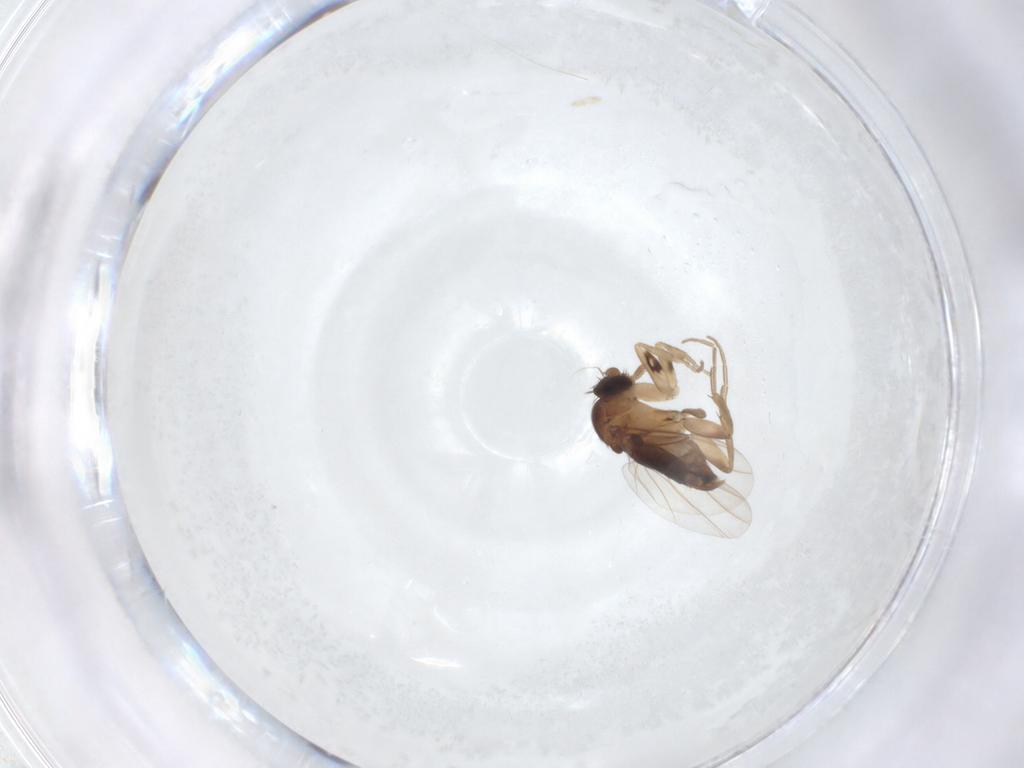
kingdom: Animalia
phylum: Arthropoda
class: Insecta
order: Diptera
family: Phoridae
